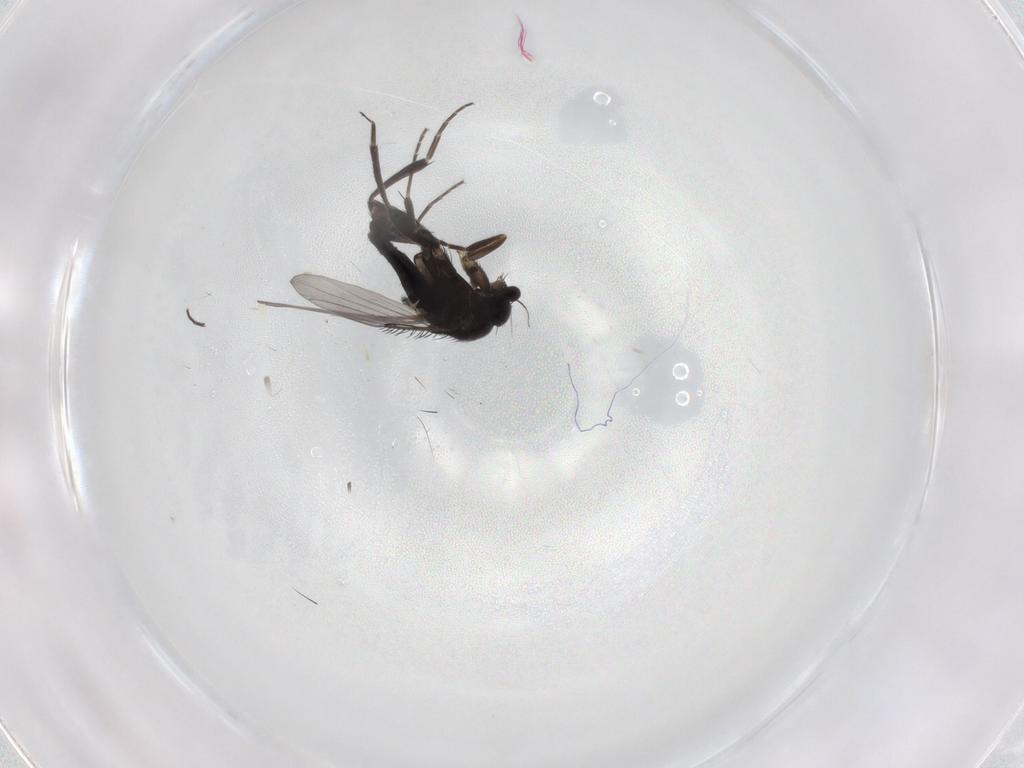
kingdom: Animalia
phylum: Arthropoda
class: Insecta
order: Diptera
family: Phoridae
